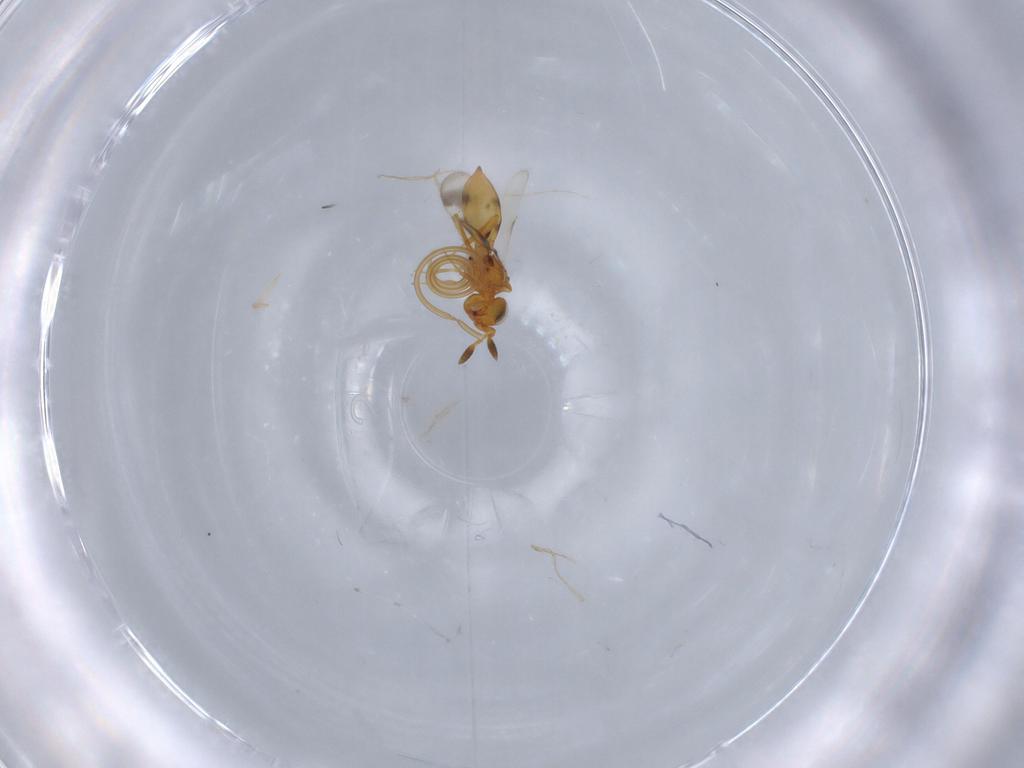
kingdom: Animalia
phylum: Arthropoda
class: Insecta
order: Hymenoptera
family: Scelionidae
